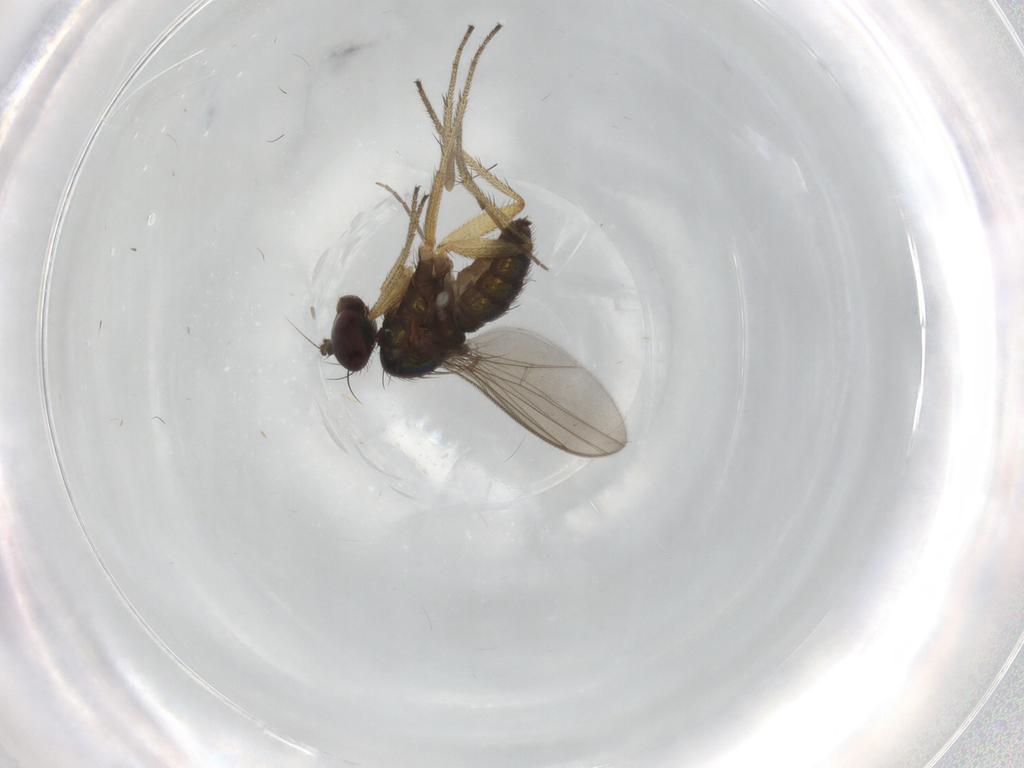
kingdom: Animalia
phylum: Arthropoda
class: Insecta
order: Diptera
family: Dolichopodidae
